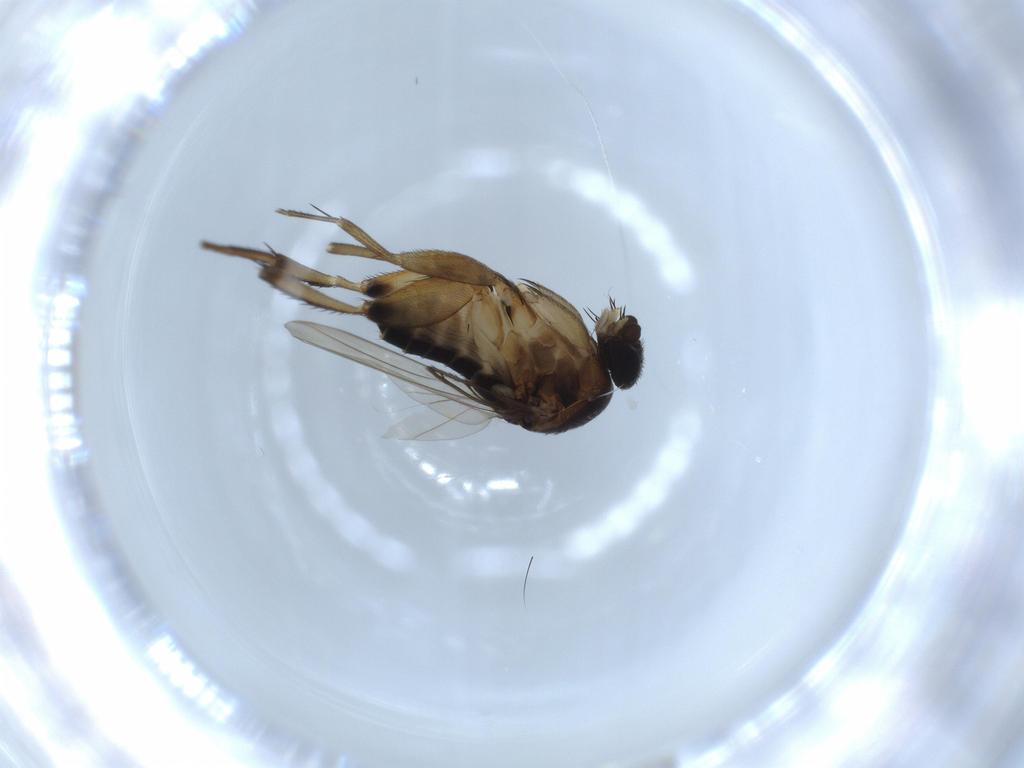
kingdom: Animalia
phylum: Arthropoda
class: Insecta
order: Diptera
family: Phoridae
